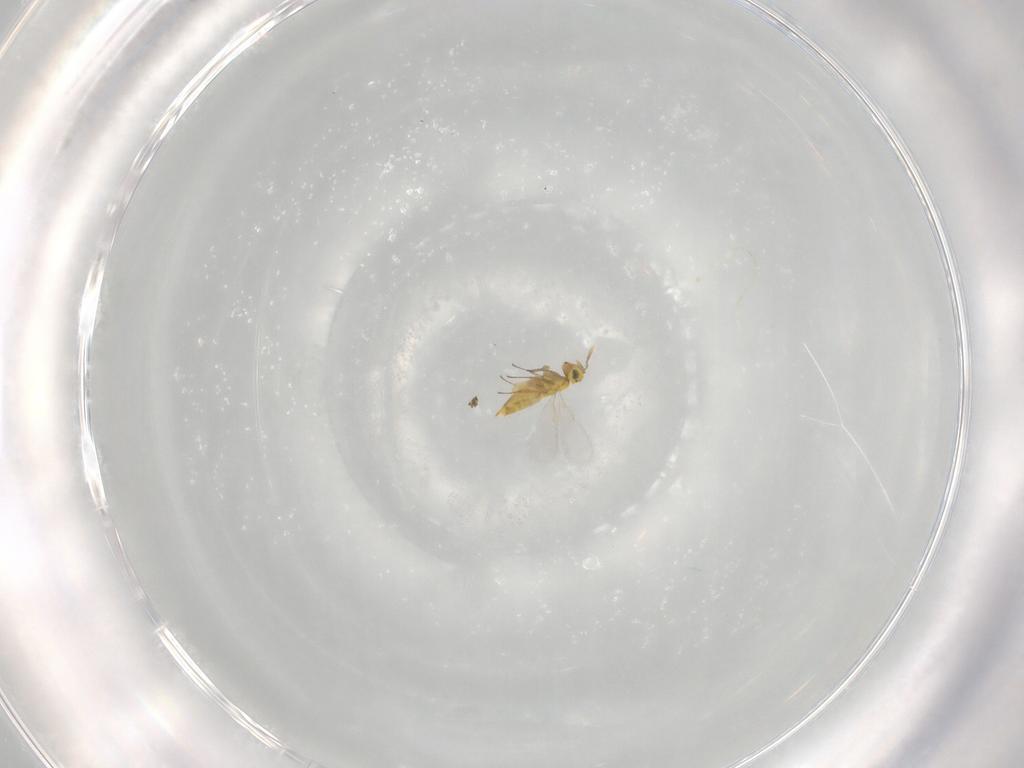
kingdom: Animalia
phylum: Arthropoda
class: Insecta
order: Hymenoptera
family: Aphelinidae
